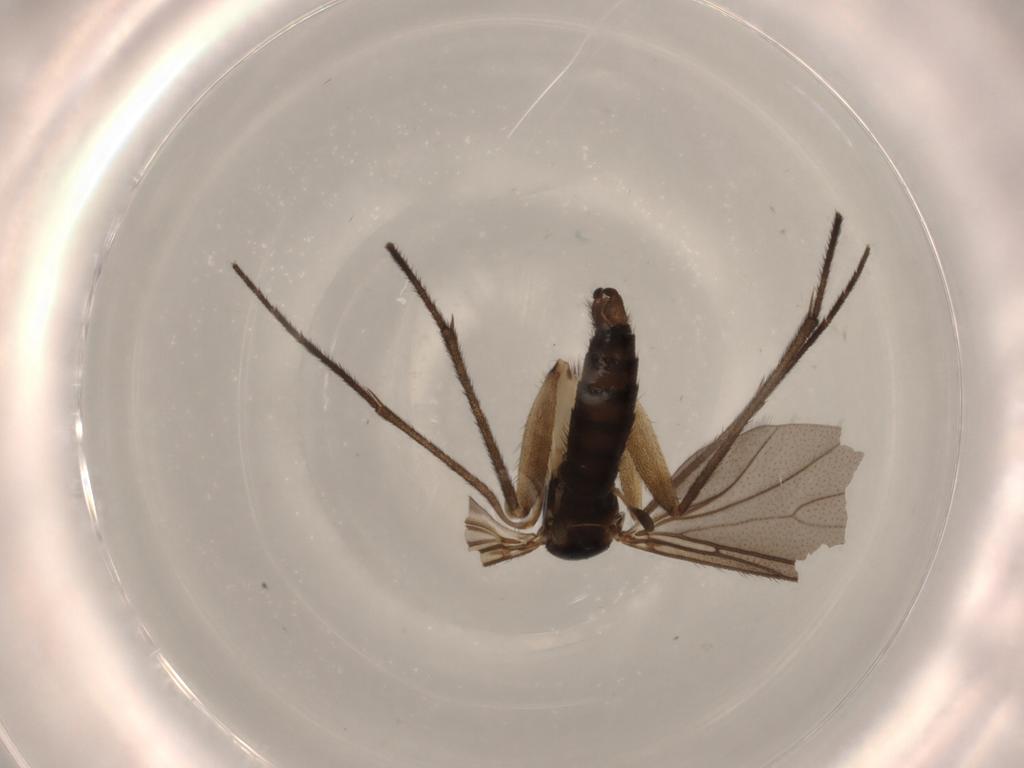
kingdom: Animalia
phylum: Arthropoda
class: Insecta
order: Diptera
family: Sciaridae
